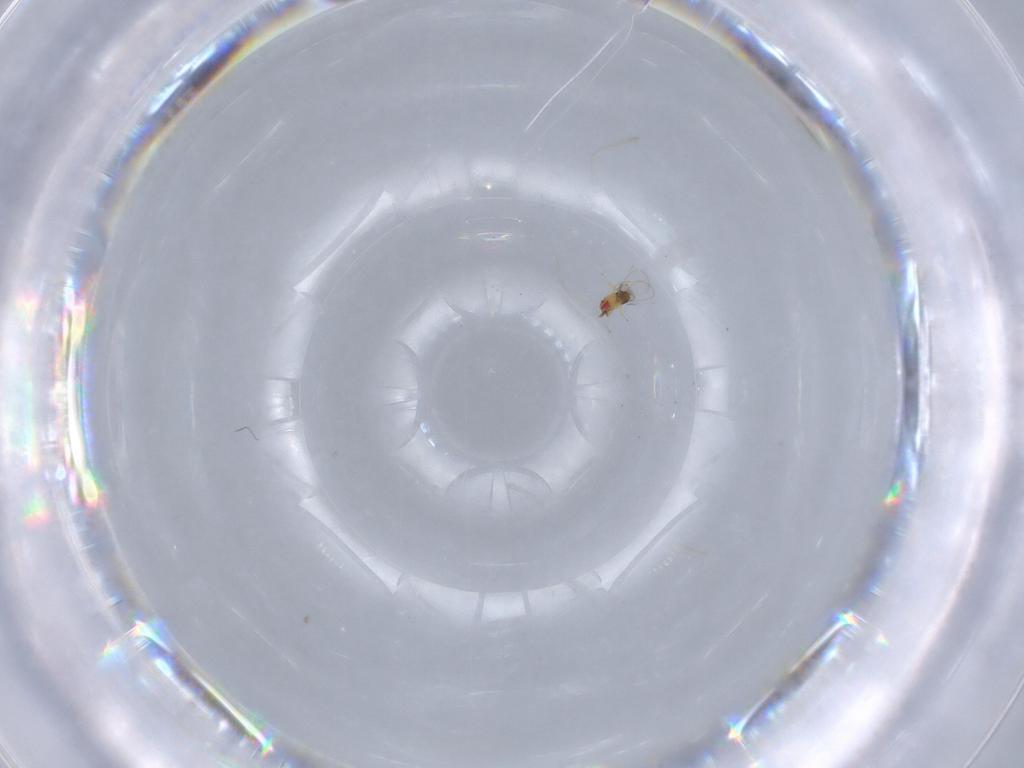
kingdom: Animalia
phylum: Arthropoda
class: Insecta
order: Hymenoptera
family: Trichogrammatidae
